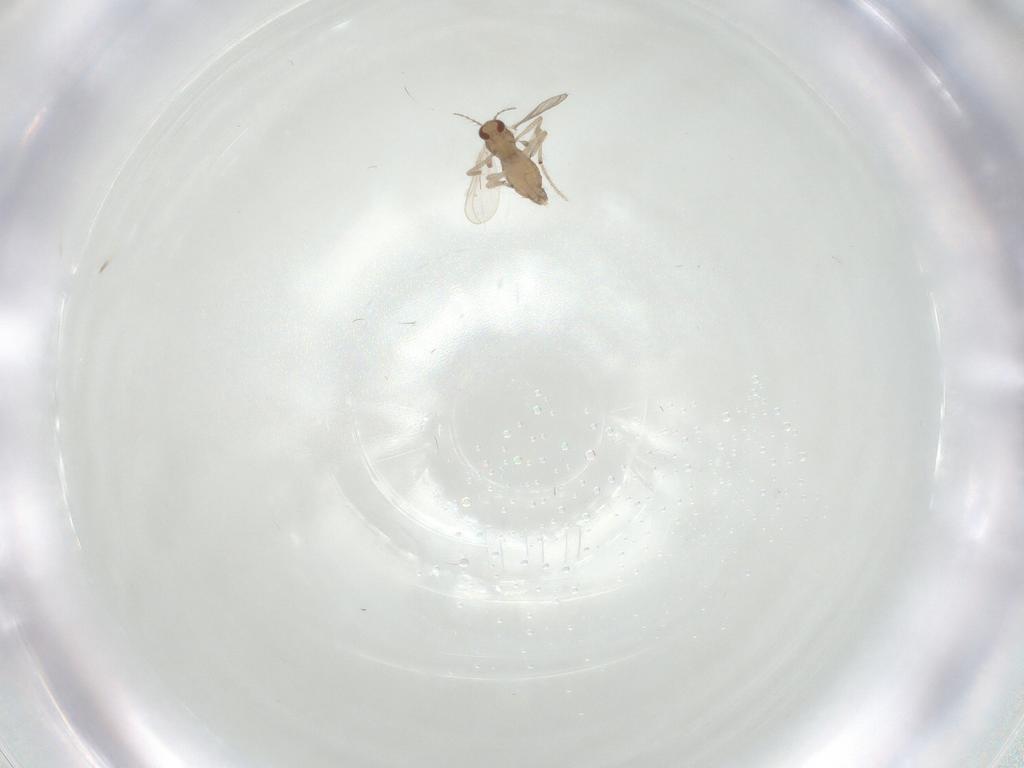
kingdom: Animalia
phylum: Arthropoda
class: Insecta
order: Diptera
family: Chironomidae
